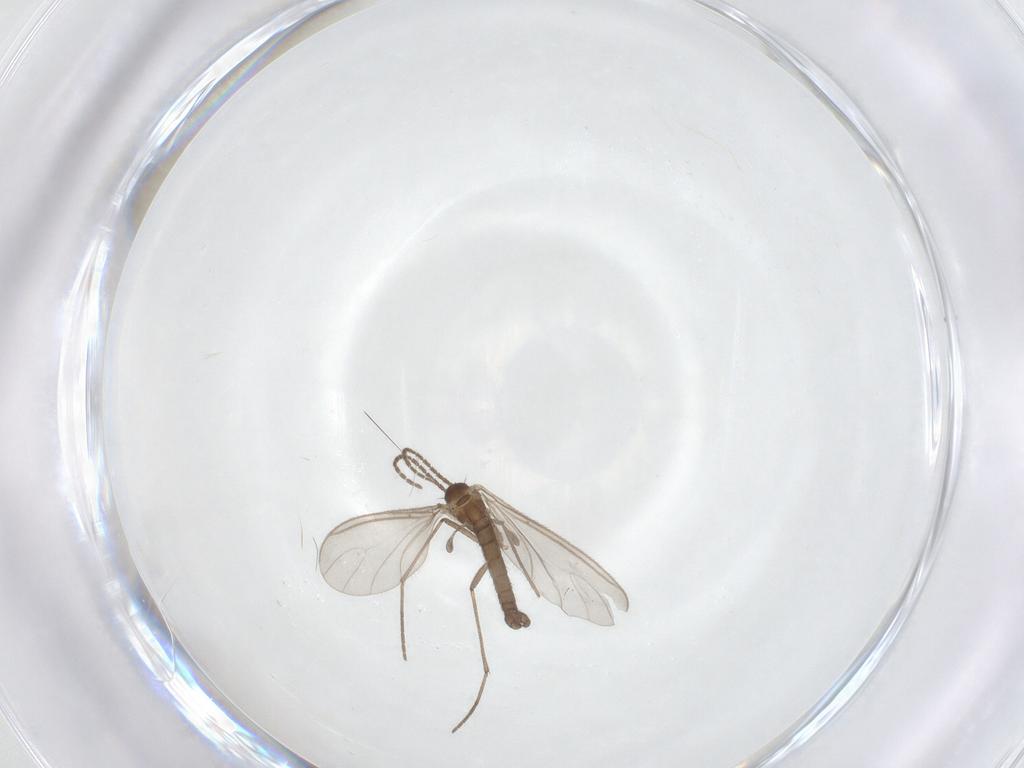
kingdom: Animalia
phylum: Arthropoda
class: Insecta
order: Diptera
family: Sciaridae
